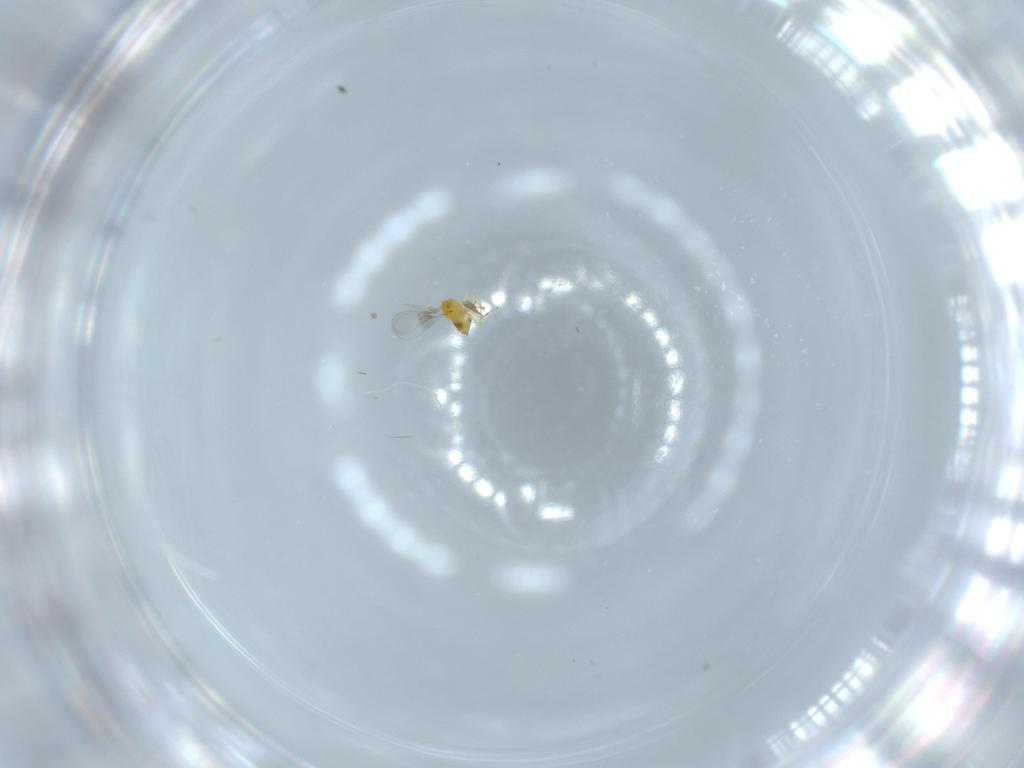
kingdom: Animalia
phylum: Arthropoda
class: Insecta
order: Hymenoptera
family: Trichogrammatidae
